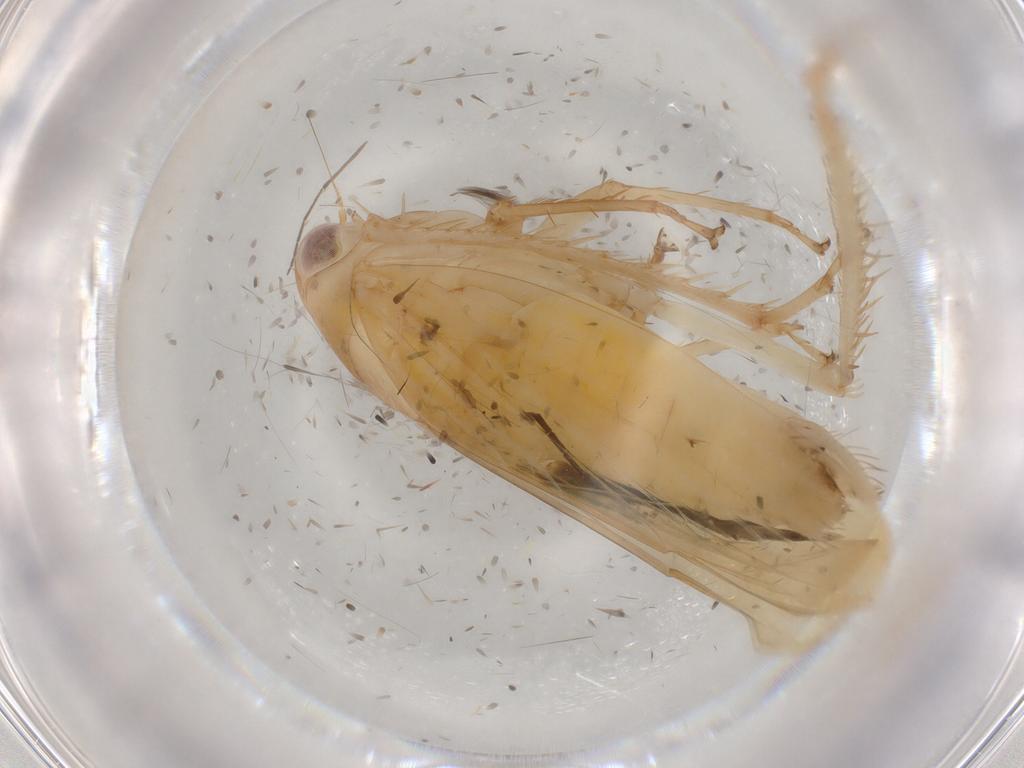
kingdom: Animalia
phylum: Arthropoda
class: Insecta
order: Hemiptera
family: Cicadellidae
